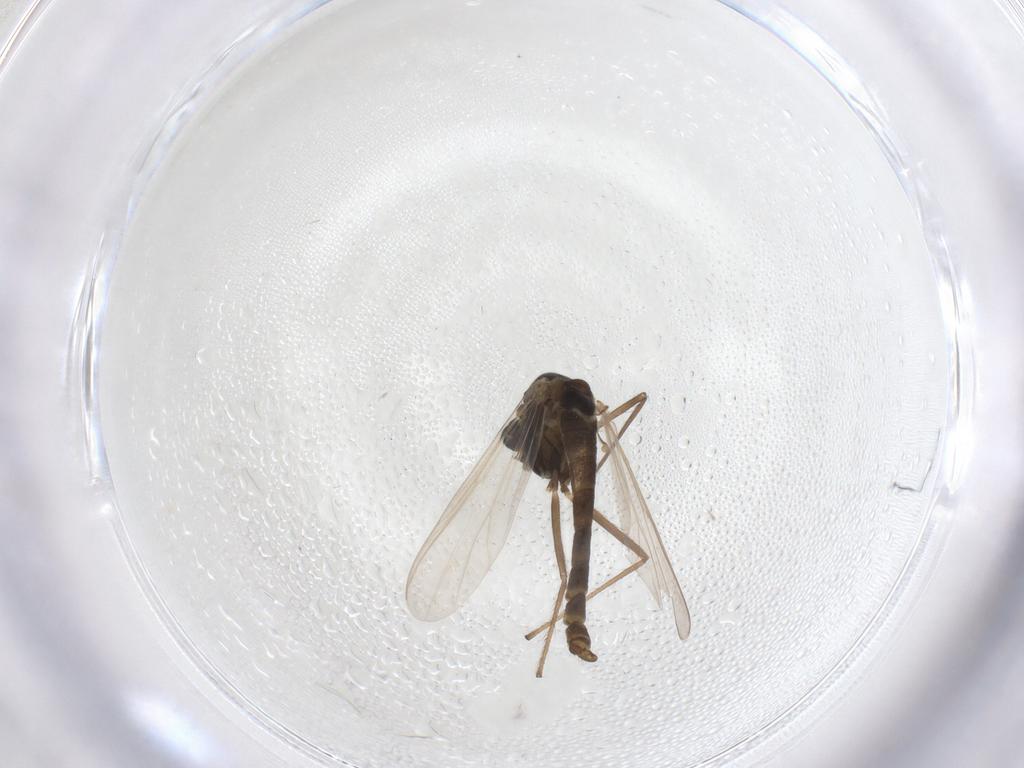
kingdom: Animalia
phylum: Arthropoda
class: Insecta
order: Diptera
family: Chironomidae
